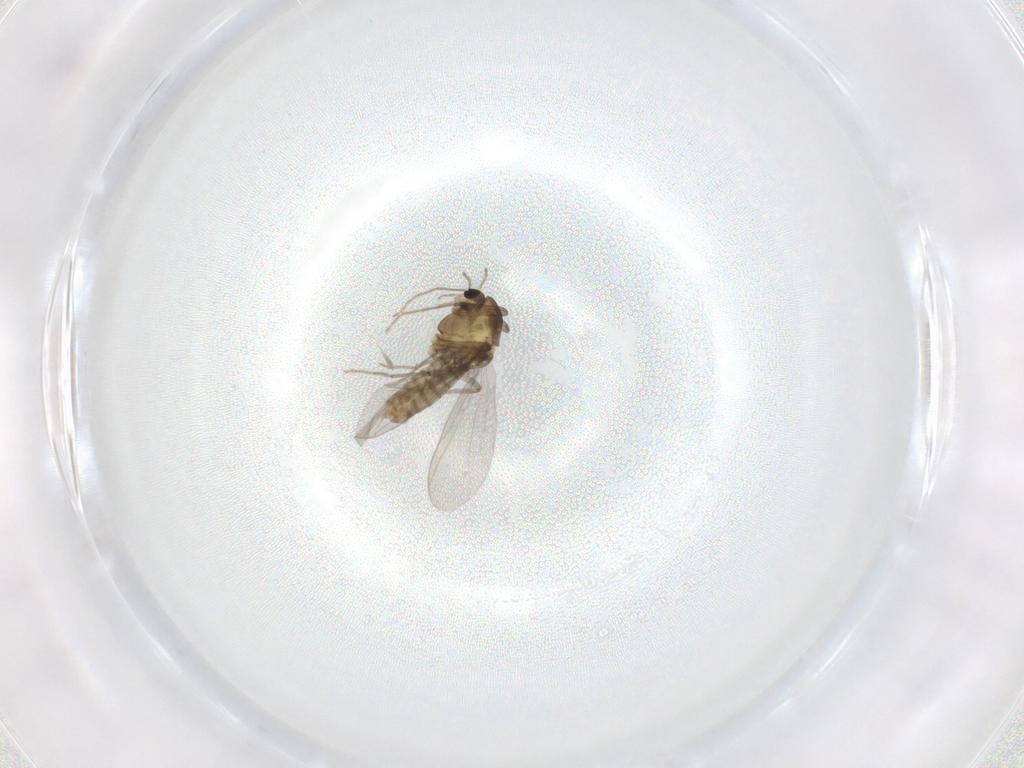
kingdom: Animalia
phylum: Arthropoda
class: Insecta
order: Diptera
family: Chironomidae
